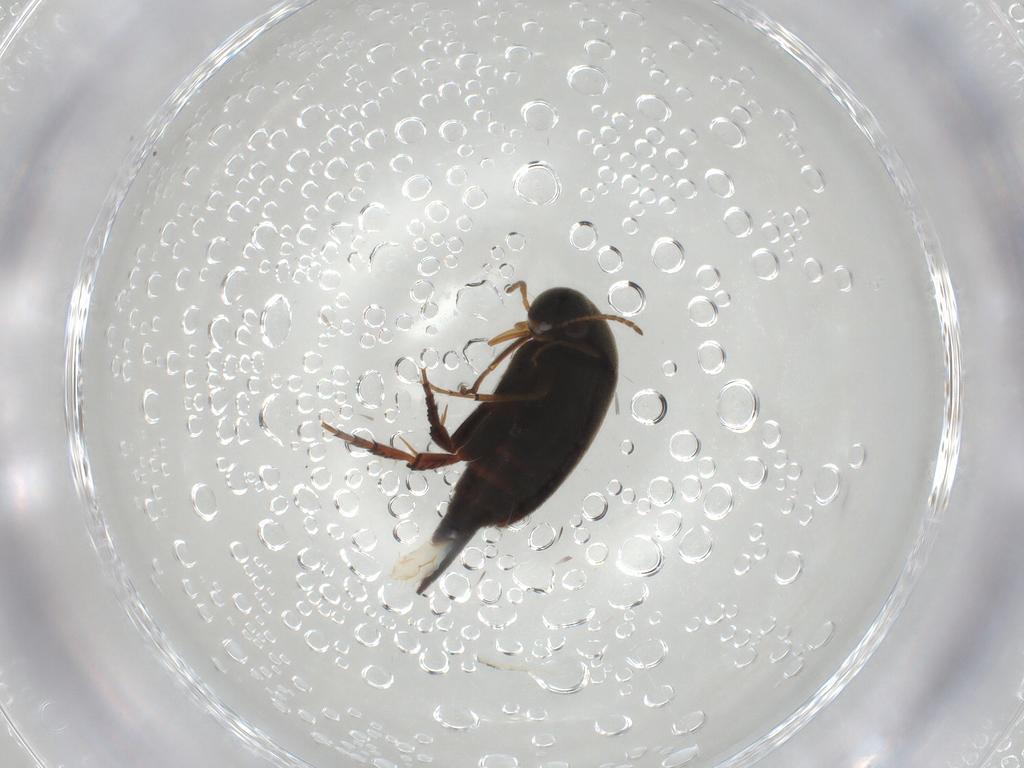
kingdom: Animalia
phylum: Arthropoda
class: Insecta
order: Coleoptera
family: Mordellidae
